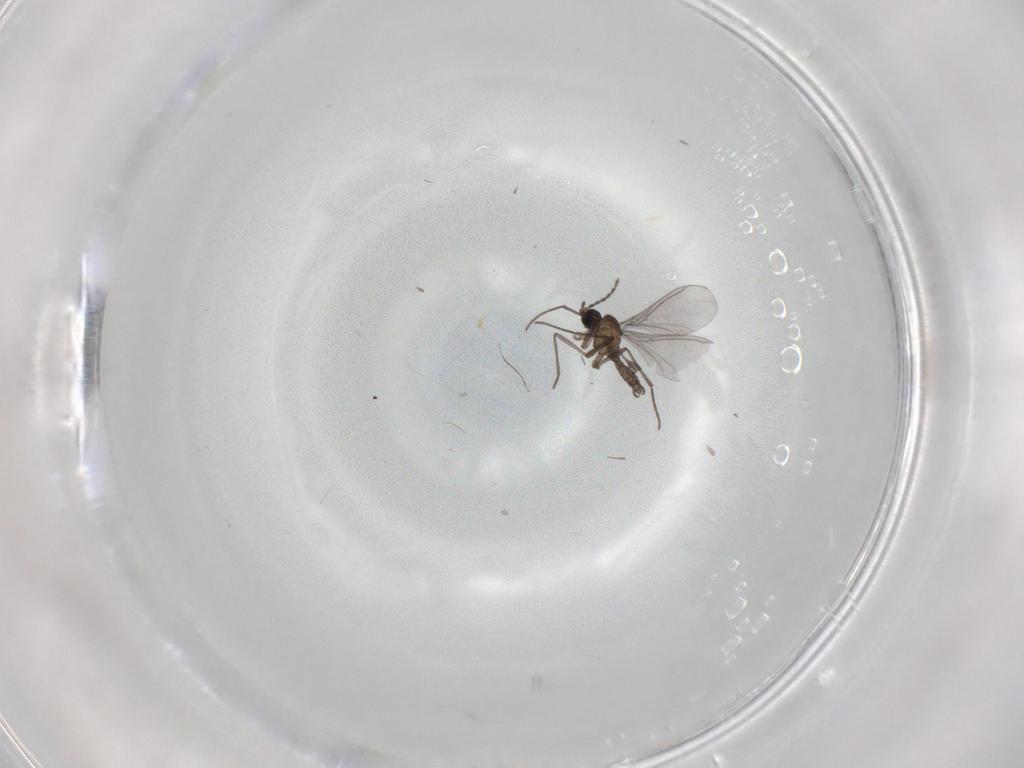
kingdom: Animalia
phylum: Arthropoda
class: Insecta
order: Diptera
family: Sciaridae
